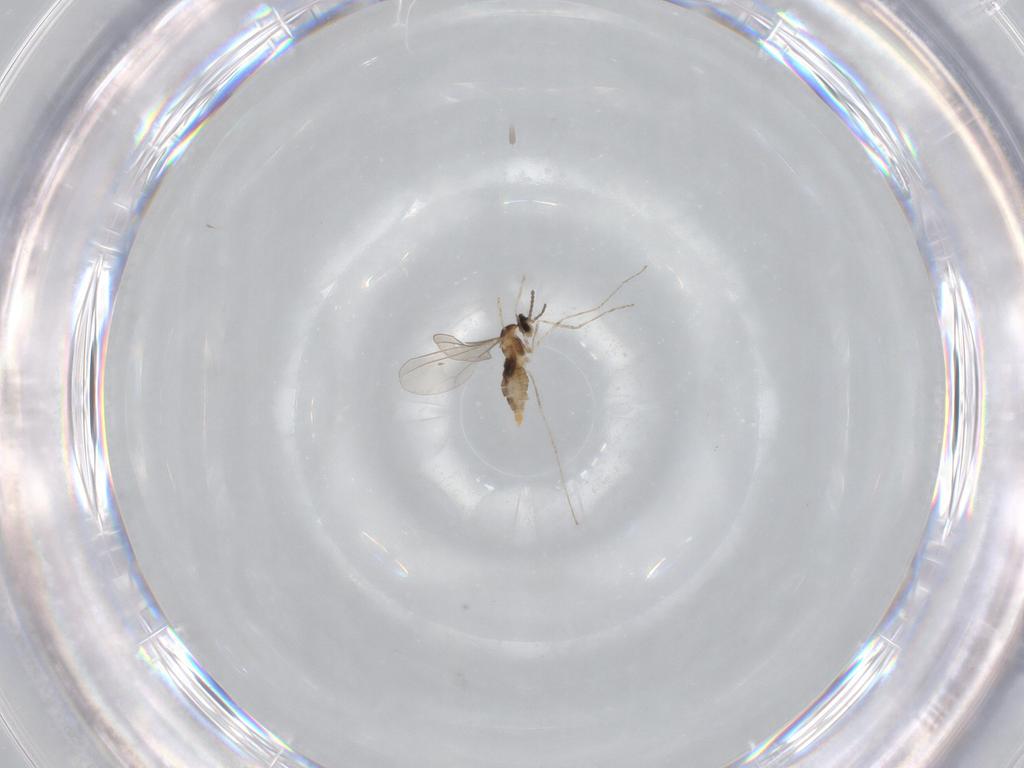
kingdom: Animalia
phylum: Arthropoda
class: Insecta
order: Diptera
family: Cecidomyiidae
